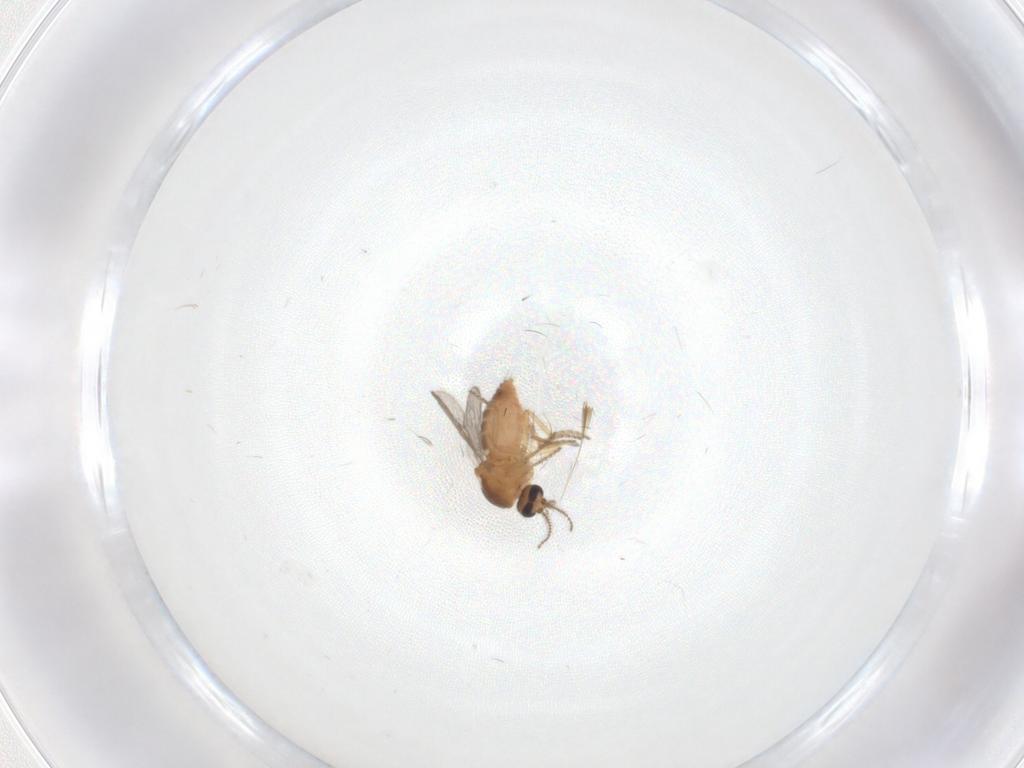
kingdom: Animalia
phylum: Arthropoda
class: Insecta
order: Diptera
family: Ceratopogonidae
